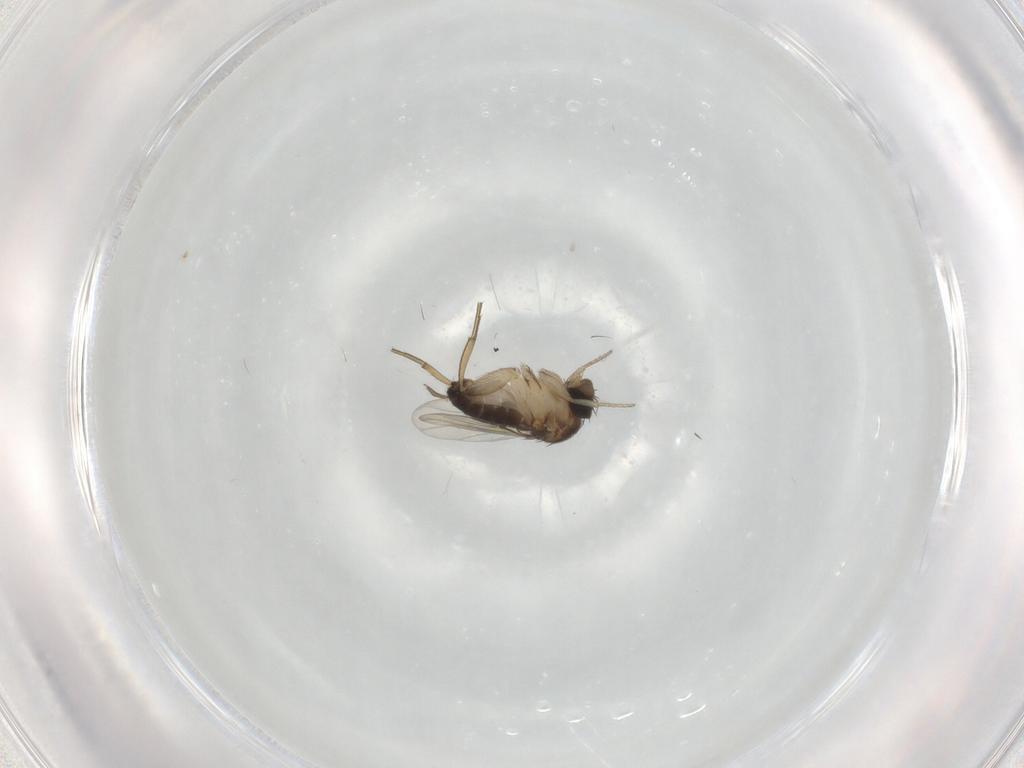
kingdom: Animalia
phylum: Arthropoda
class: Insecta
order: Diptera
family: Ceratopogonidae
